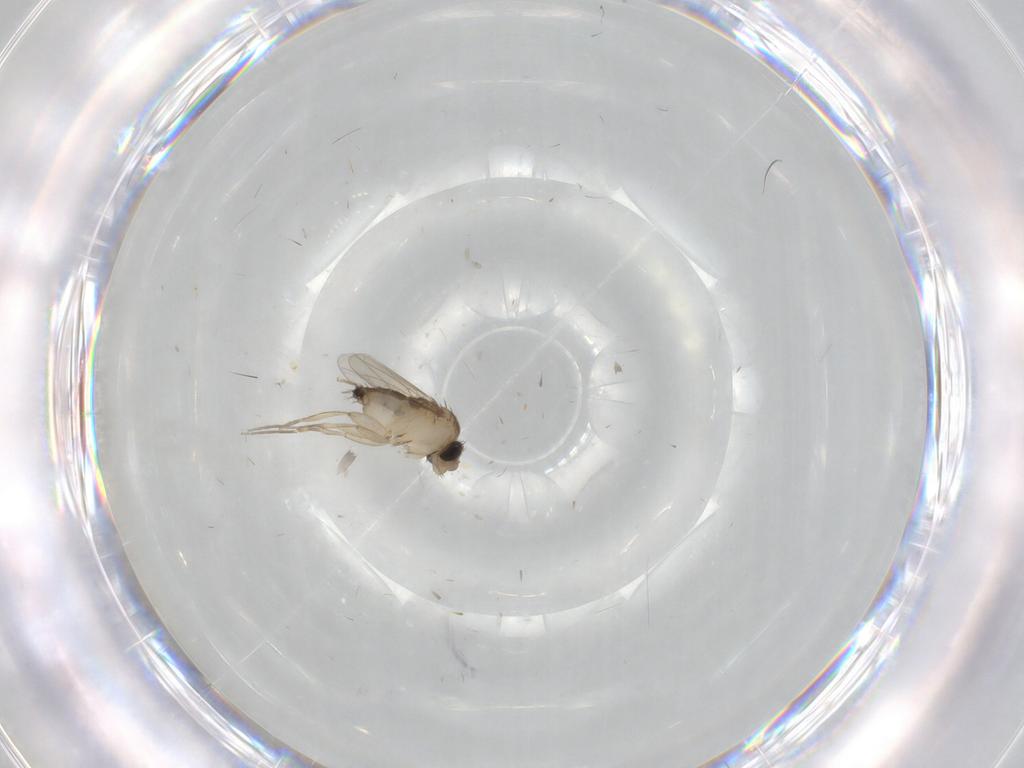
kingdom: Animalia
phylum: Arthropoda
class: Insecta
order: Diptera
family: Phoridae
